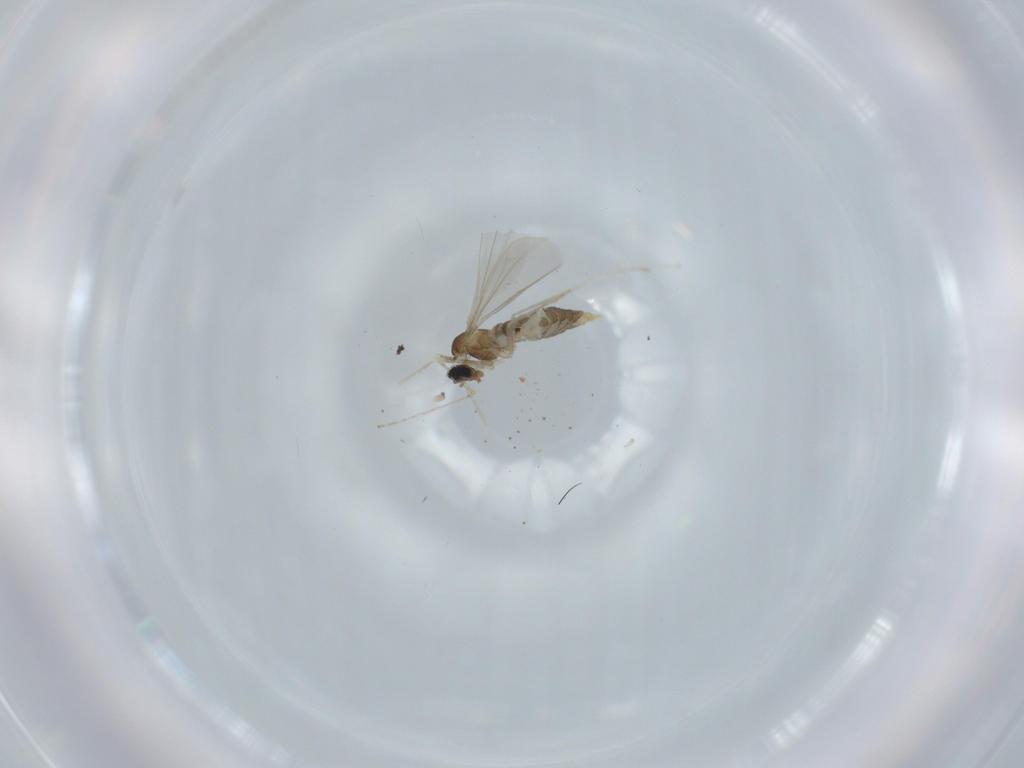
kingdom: Animalia
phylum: Arthropoda
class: Insecta
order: Diptera
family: Cecidomyiidae
